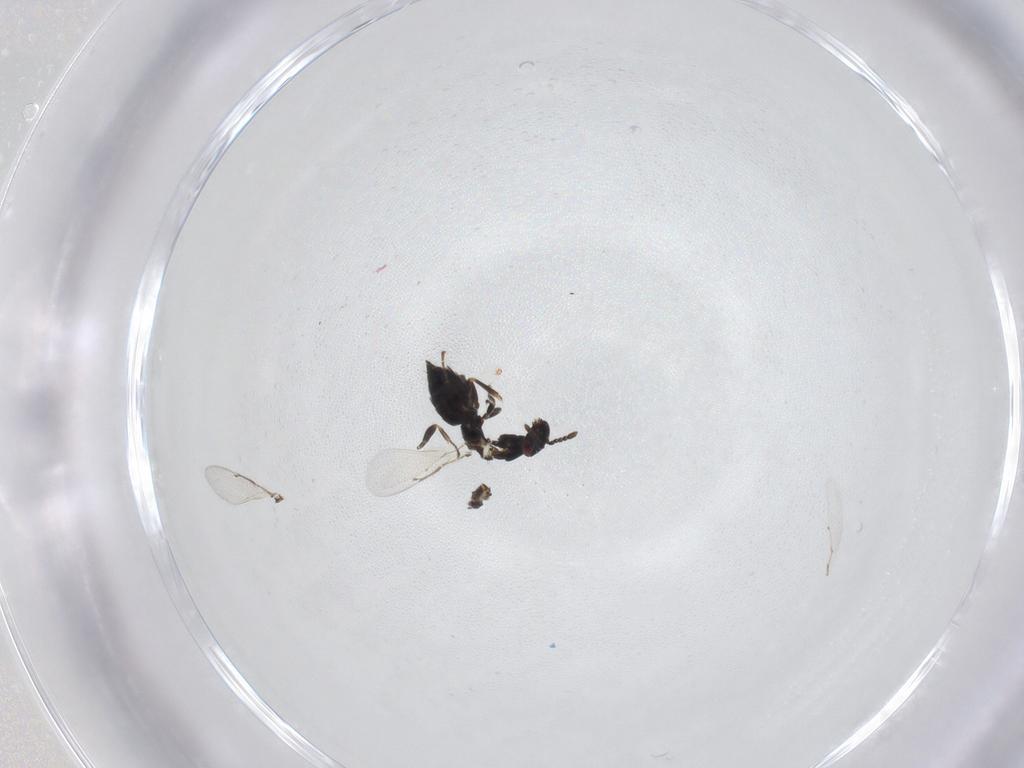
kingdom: Animalia
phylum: Arthropoda
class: Insecta
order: Hymenoptera
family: Eulophidae
